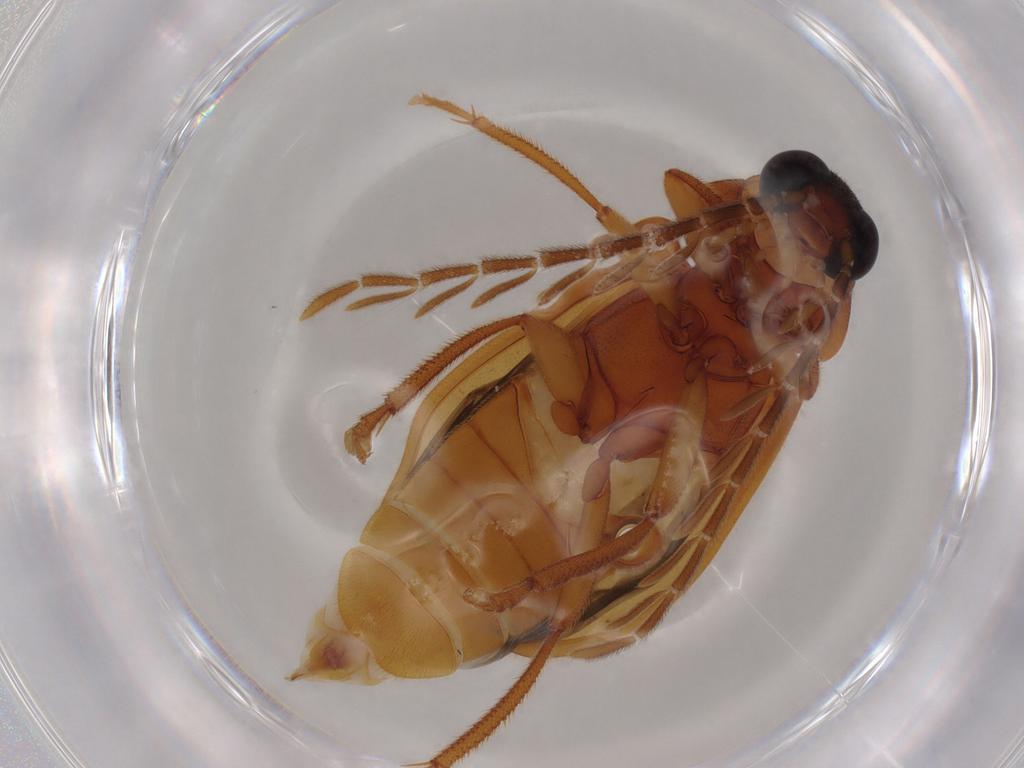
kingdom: Animalia
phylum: Arthropoda
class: Insecta
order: Coleoptera
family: Ptilodactylidae
